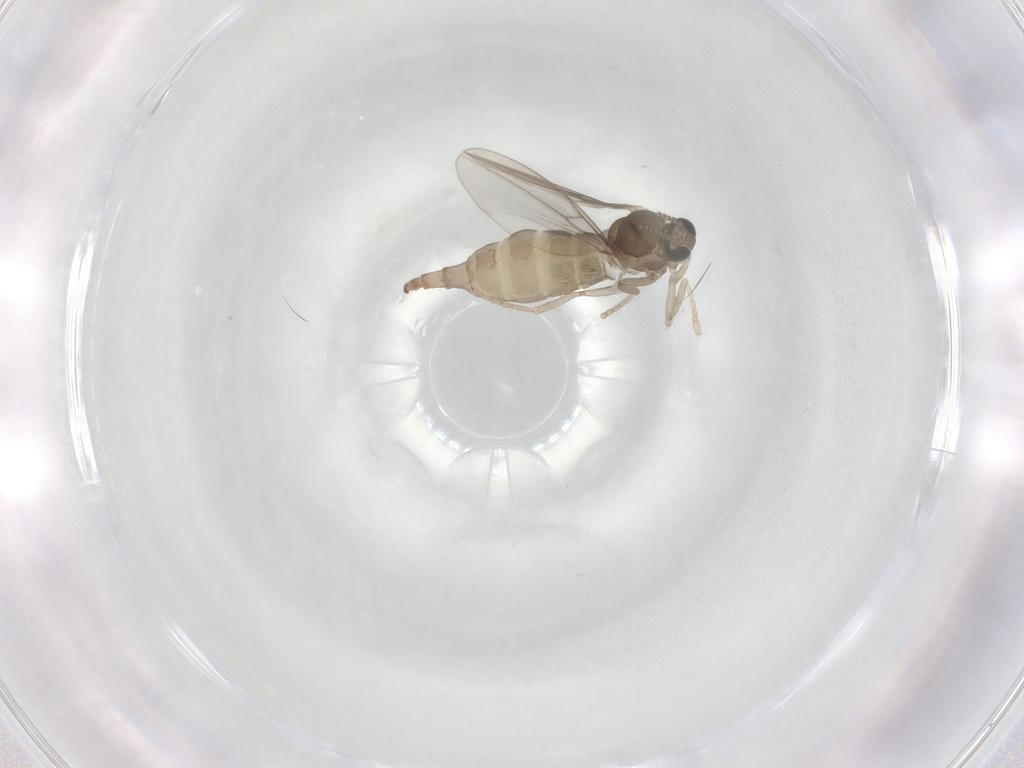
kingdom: Animalia
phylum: Arthropoda
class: Insecta
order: Diptera
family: Cecidomyiidae
